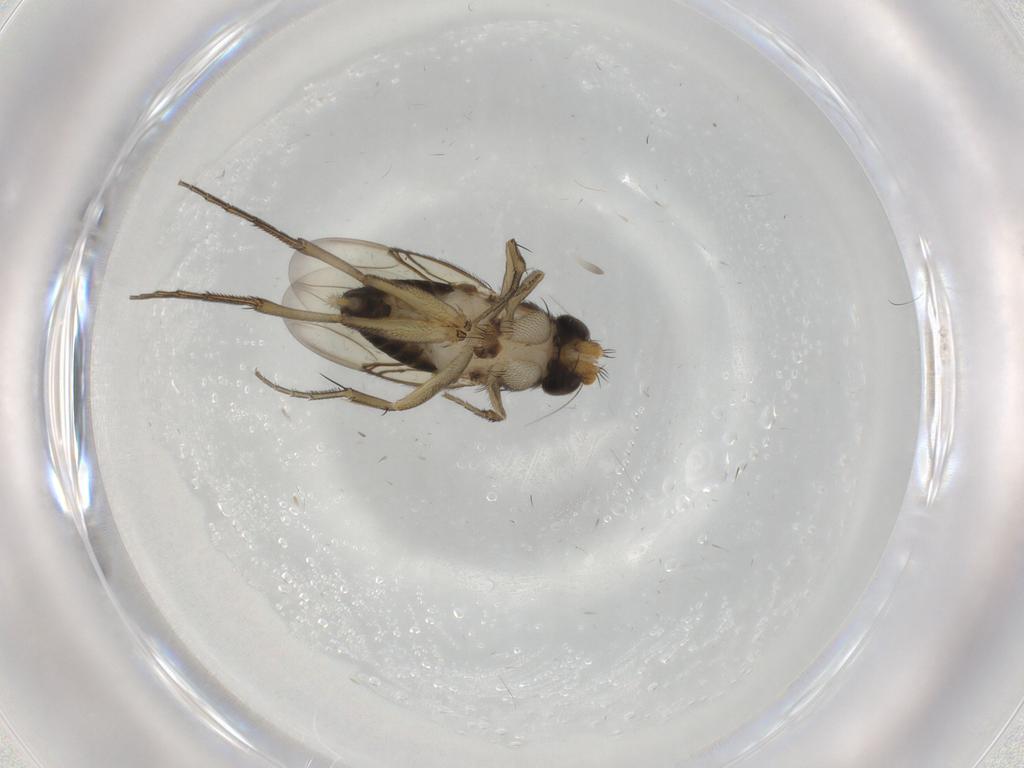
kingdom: Animalia
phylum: Arthropoda
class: Insecta
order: Diptera
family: Phoridae
